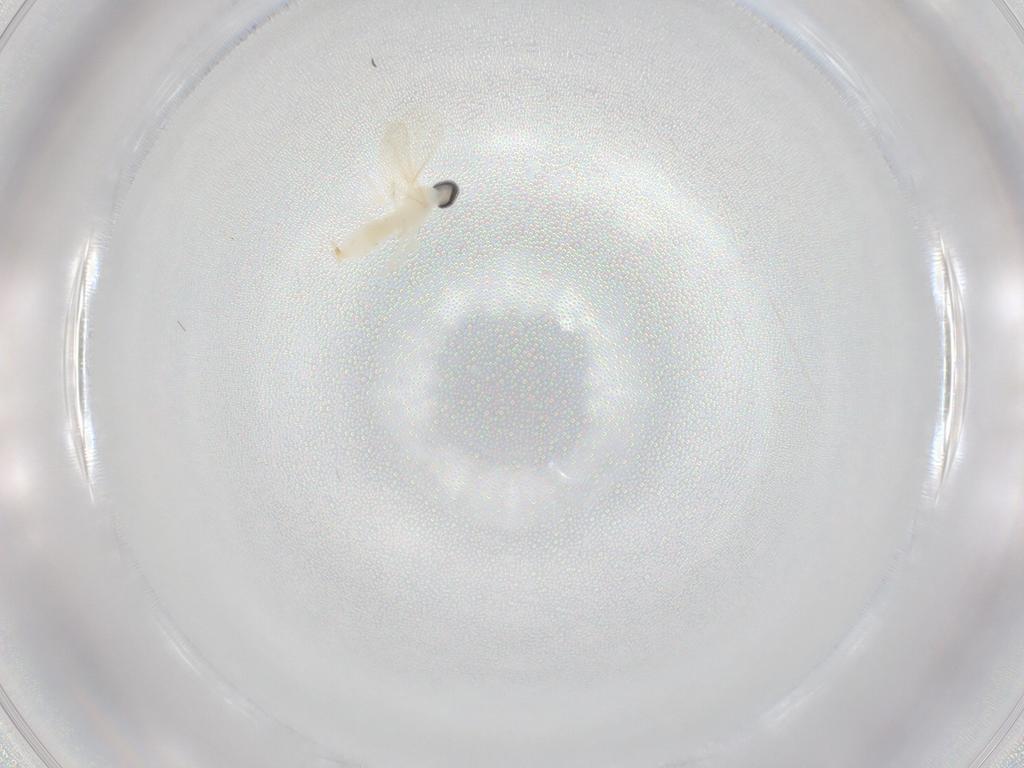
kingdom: Animalia
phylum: Arthropoda
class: Insecta
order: Diptera
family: Cecidomyiidae
